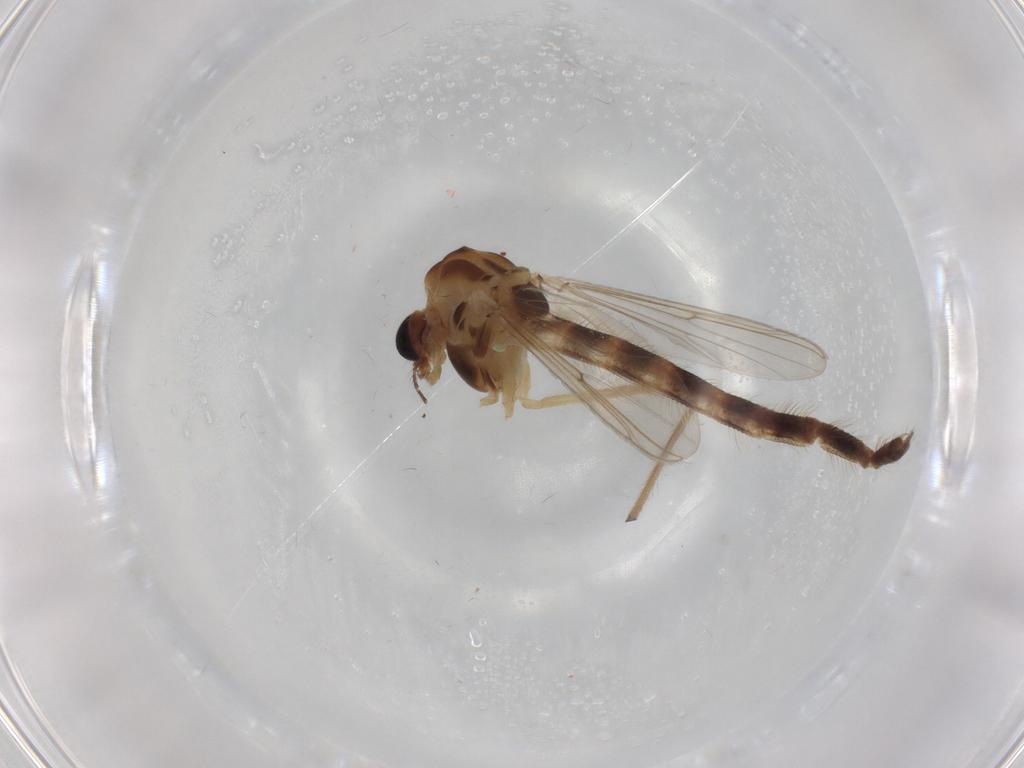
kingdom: Animalia
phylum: Arthropoda
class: Insecta
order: Diptera
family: Chironomidae
